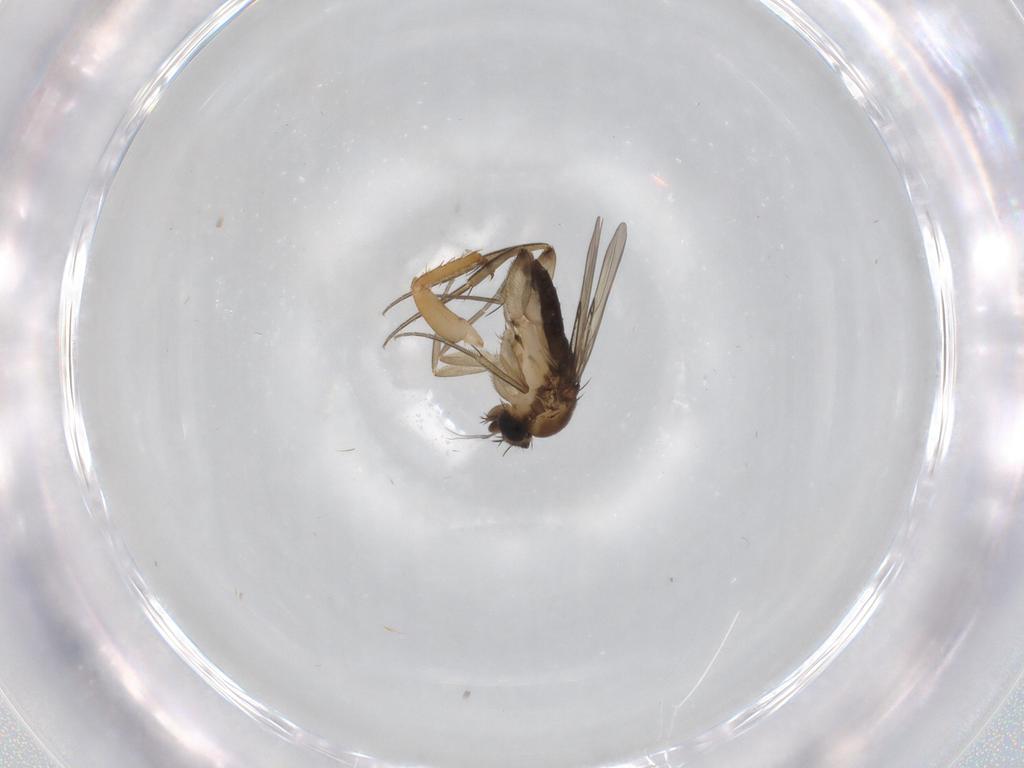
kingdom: Animalia
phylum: Arthropoda
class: Insecta
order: Diptera
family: Phoridae
